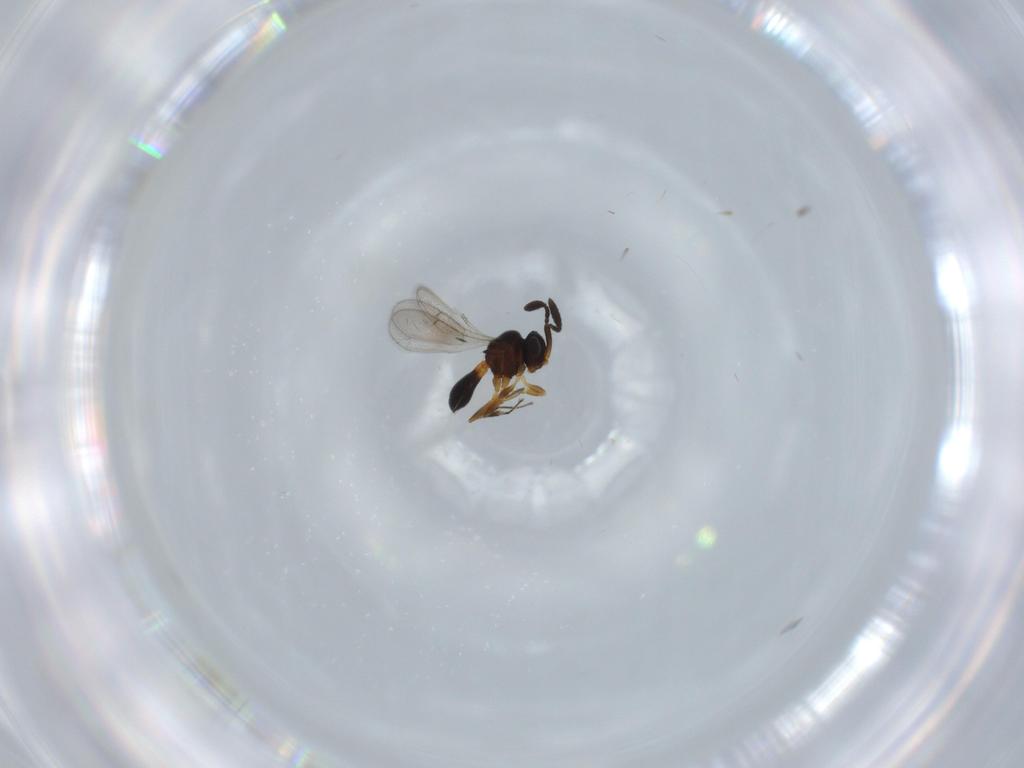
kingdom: Animalia
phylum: Arthropoda
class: Insecta
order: Hymenoptera
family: Scelionidae
